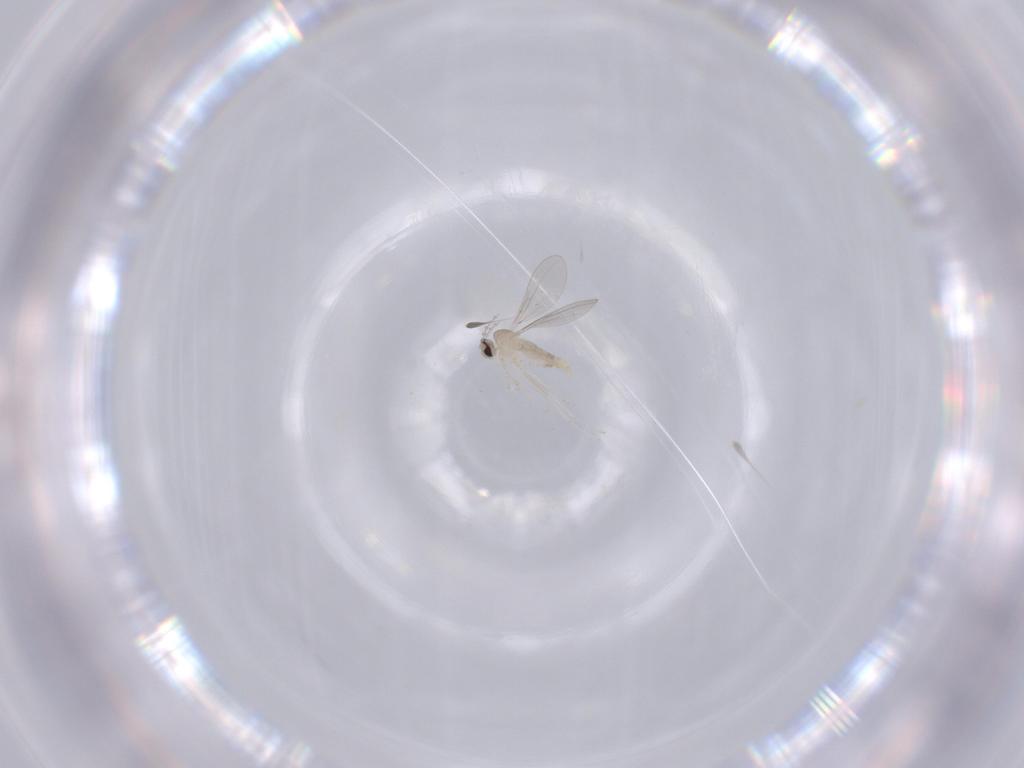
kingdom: Animalia
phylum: Arthropoda
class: Insecta
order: Diptera
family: Cecidomyiidae
